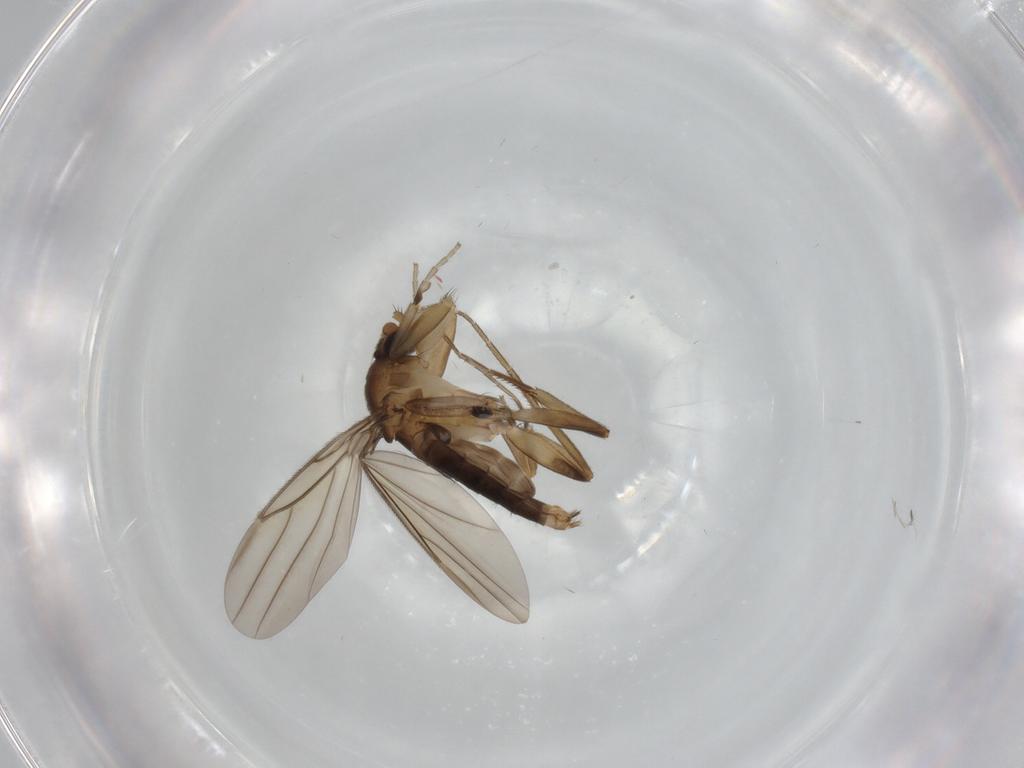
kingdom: Animalia
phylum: Arthropoda
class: Insecta
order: Diptera
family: Phoridae
